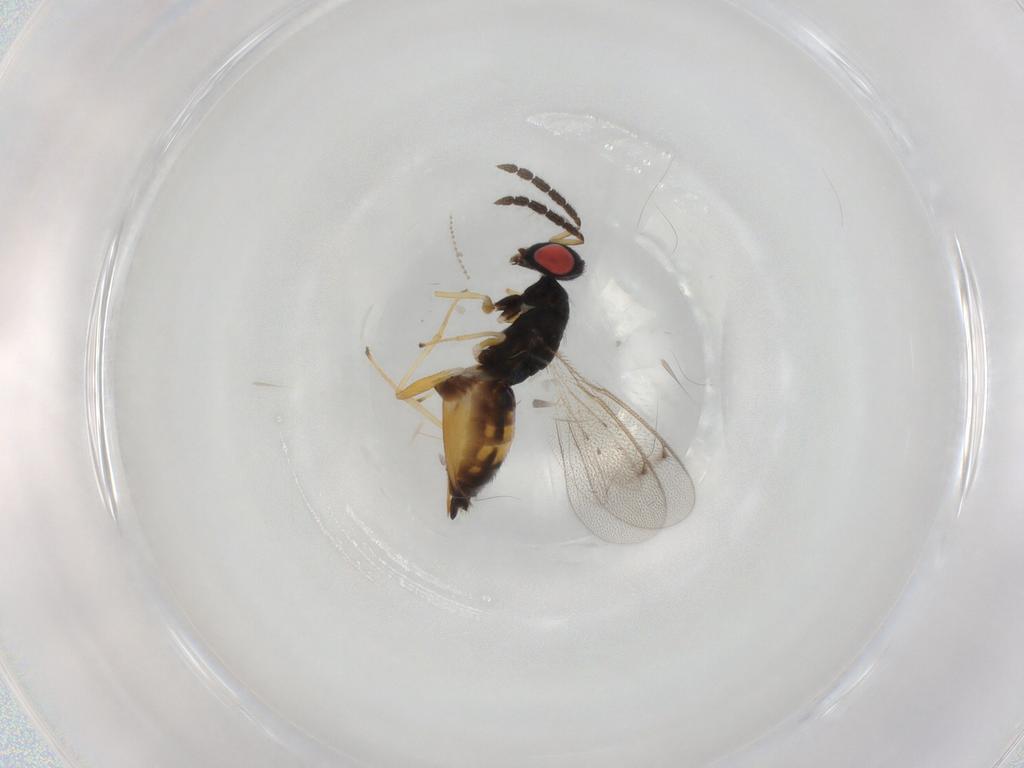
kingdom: Animalia
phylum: Arthropoda
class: Insecta
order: Hymenoptera
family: Eulophidae
